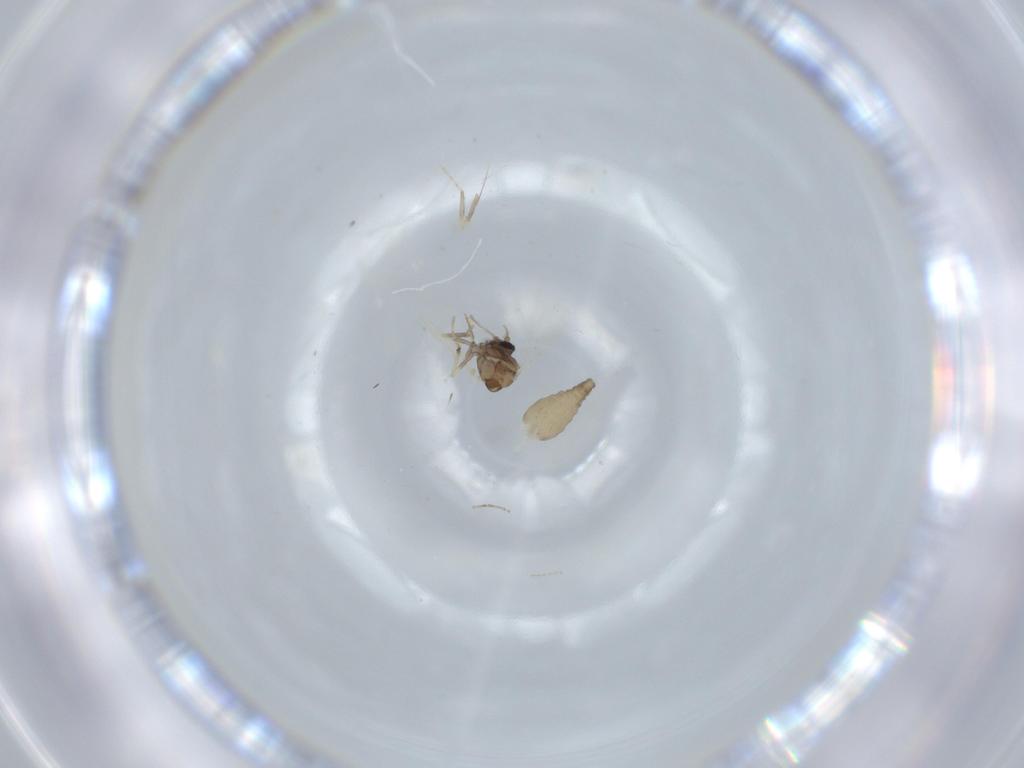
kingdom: Animalia
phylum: Arthropoda
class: Insecta
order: Diptera
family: Ceratopogonidae
